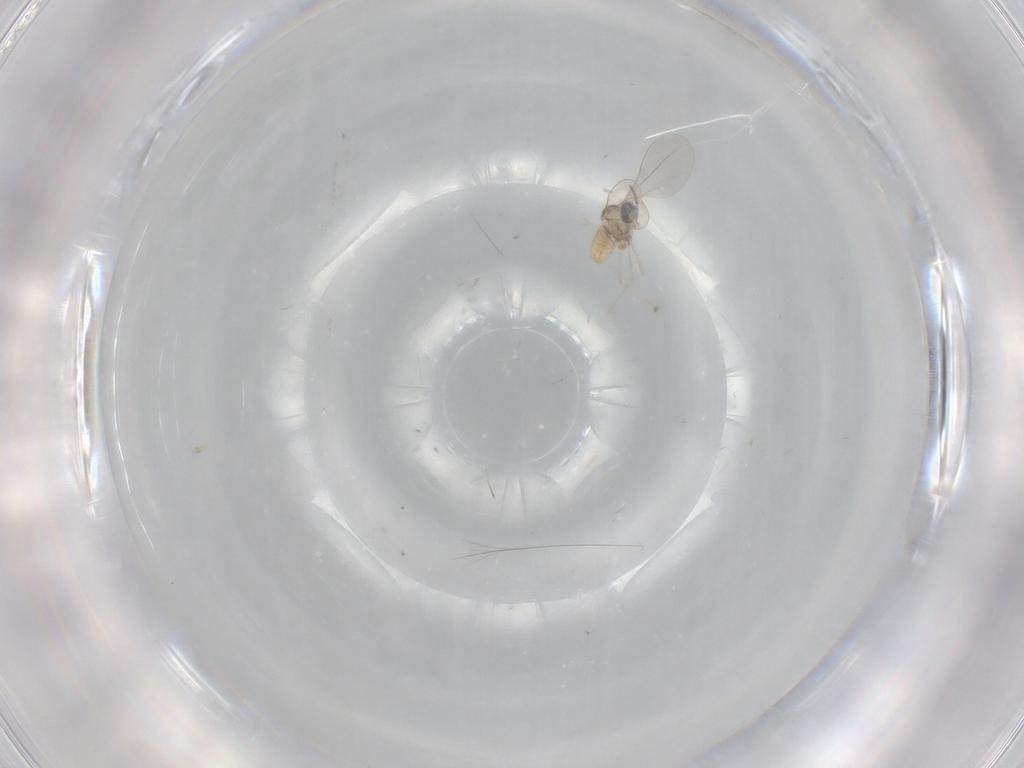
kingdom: Animalia
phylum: Arthropoda
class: Insecta
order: Diptera
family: Cecidomyiidae
